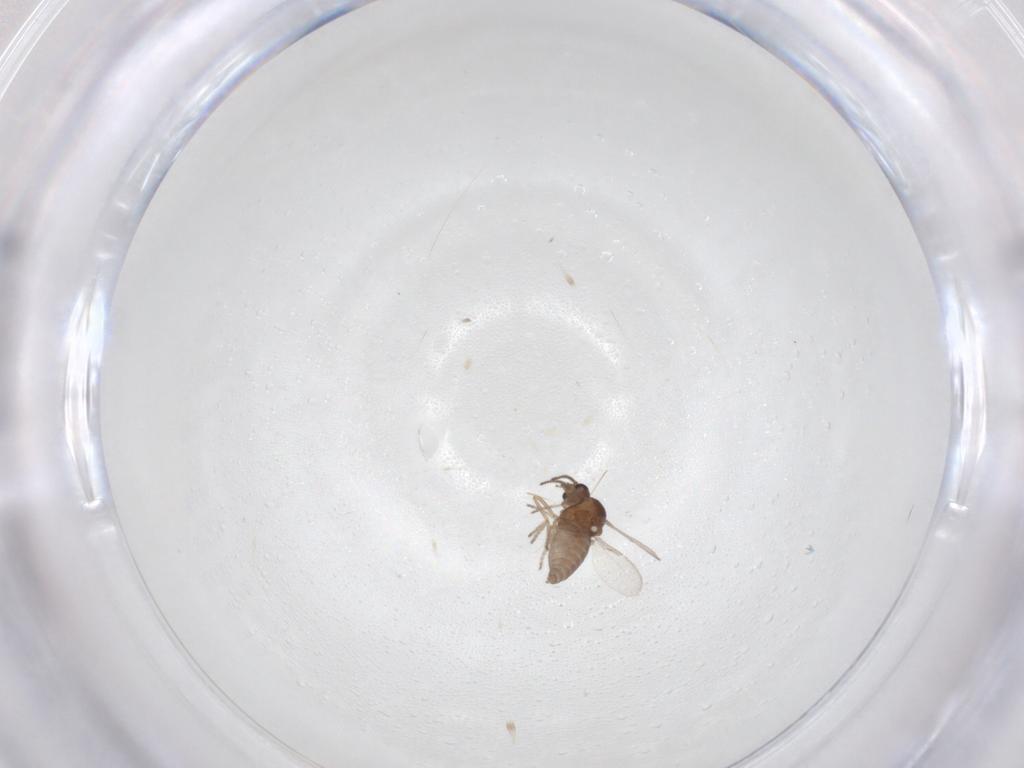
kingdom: Animalia
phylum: Arthropoda
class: Insecta
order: Diptera
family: Ceratopogonidae
